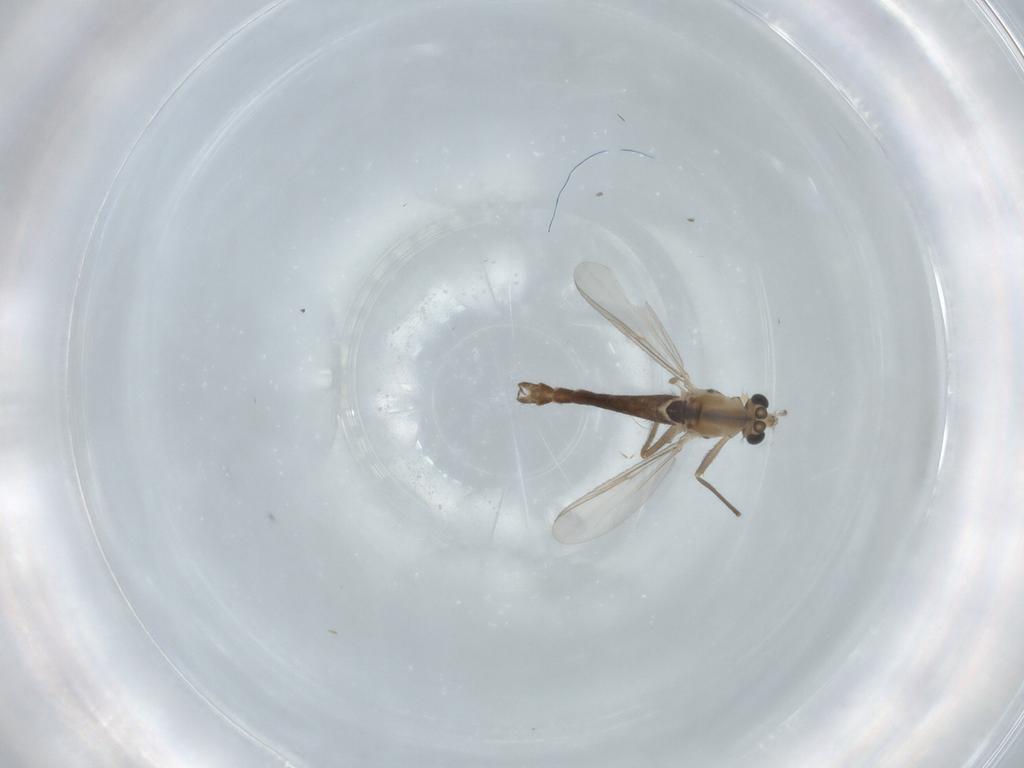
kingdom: Animalia
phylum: Arthropoda
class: Insecta
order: Diptera
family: Chironomidae
